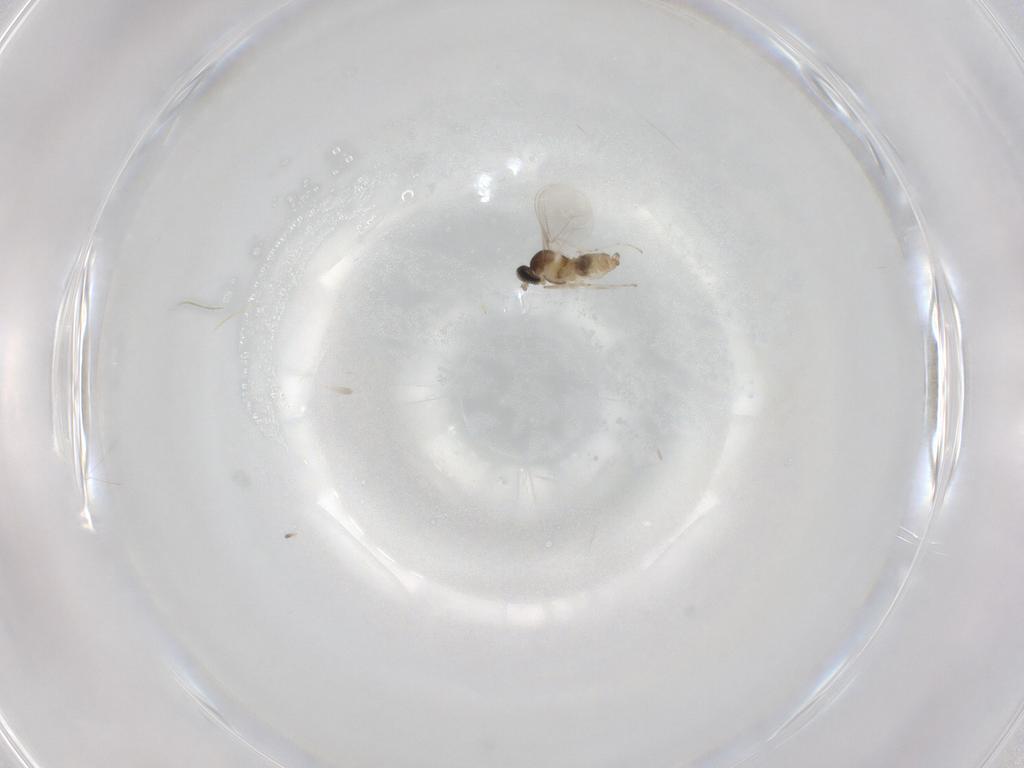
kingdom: Animalia
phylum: Arthropoda
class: Insecta
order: Diptera
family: Cecidomyiidae
